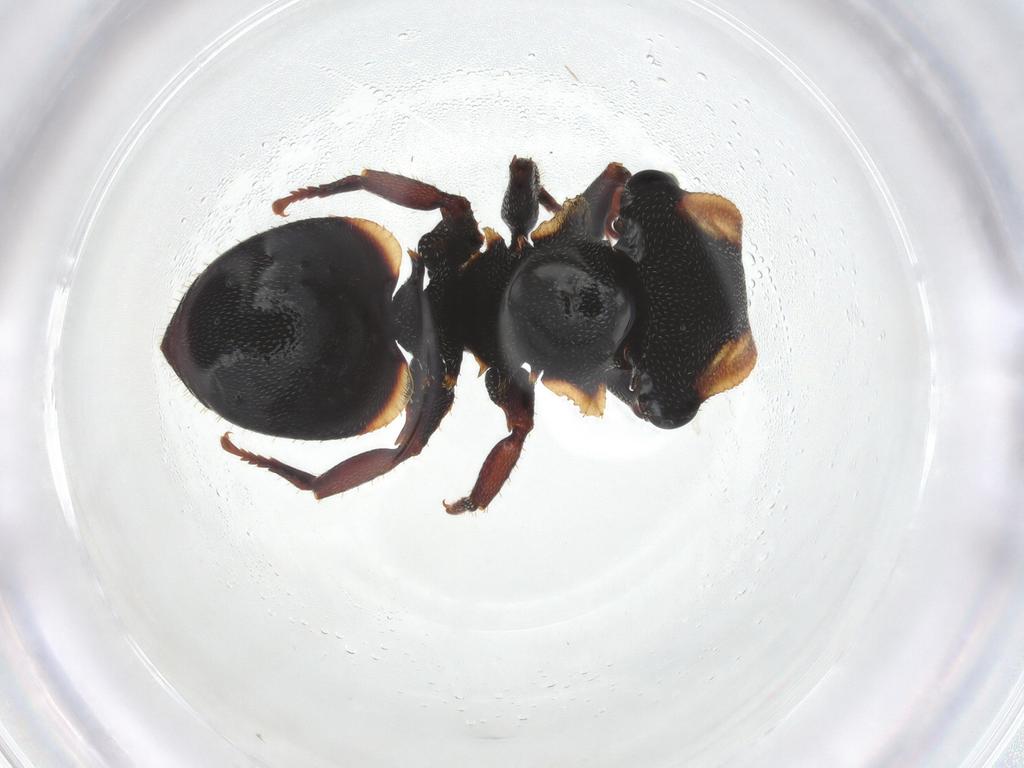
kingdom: Animalia
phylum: Arthropoda
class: Insecta
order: Hymenoptera
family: Formicidae
